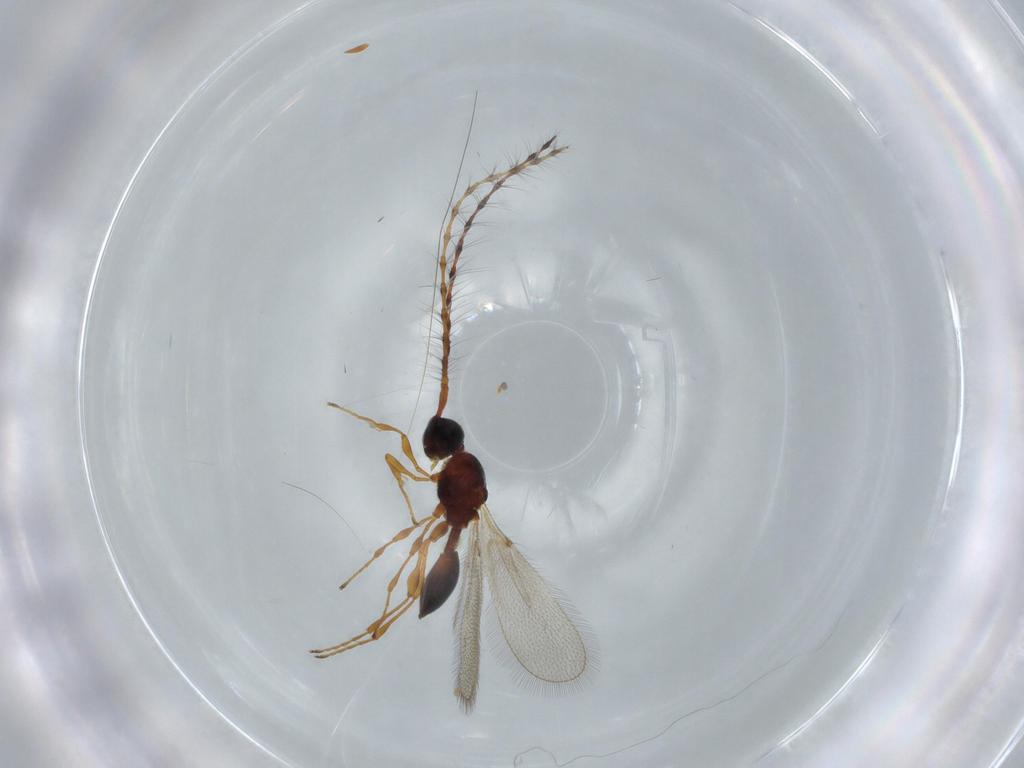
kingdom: Animalia
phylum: Arthropoda
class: Insecta
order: Hymenoptera
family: Diapriidae
